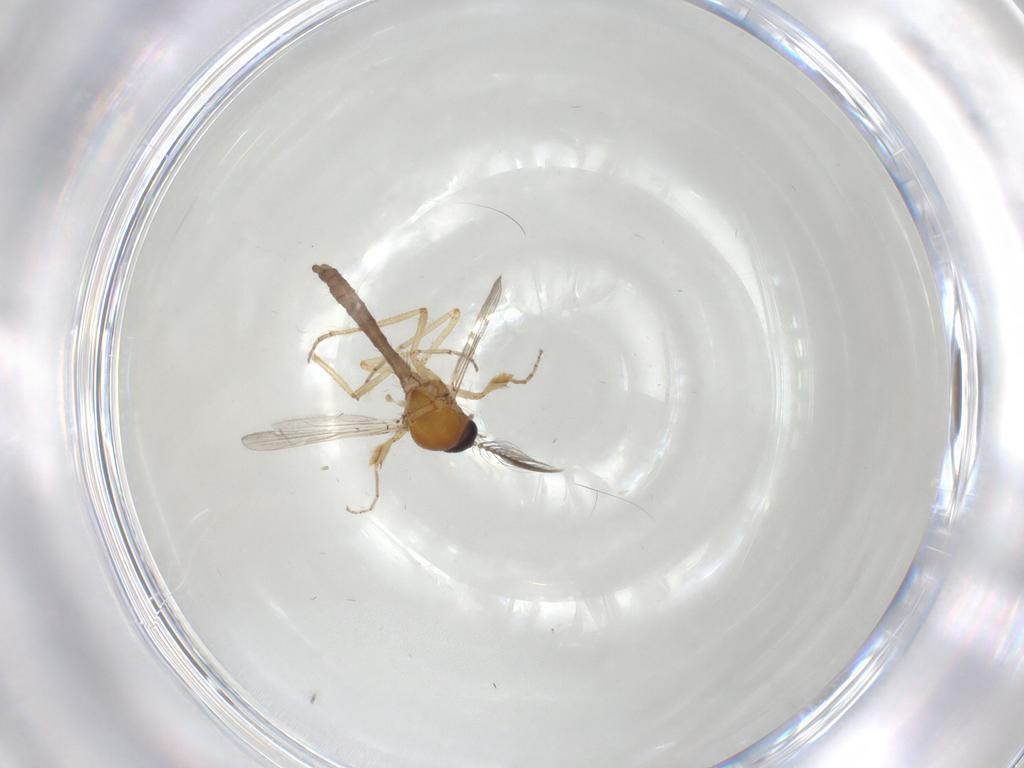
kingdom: Animalia
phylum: Arthropoda
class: Insecta
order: Diptera
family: Ceratopogonidae
